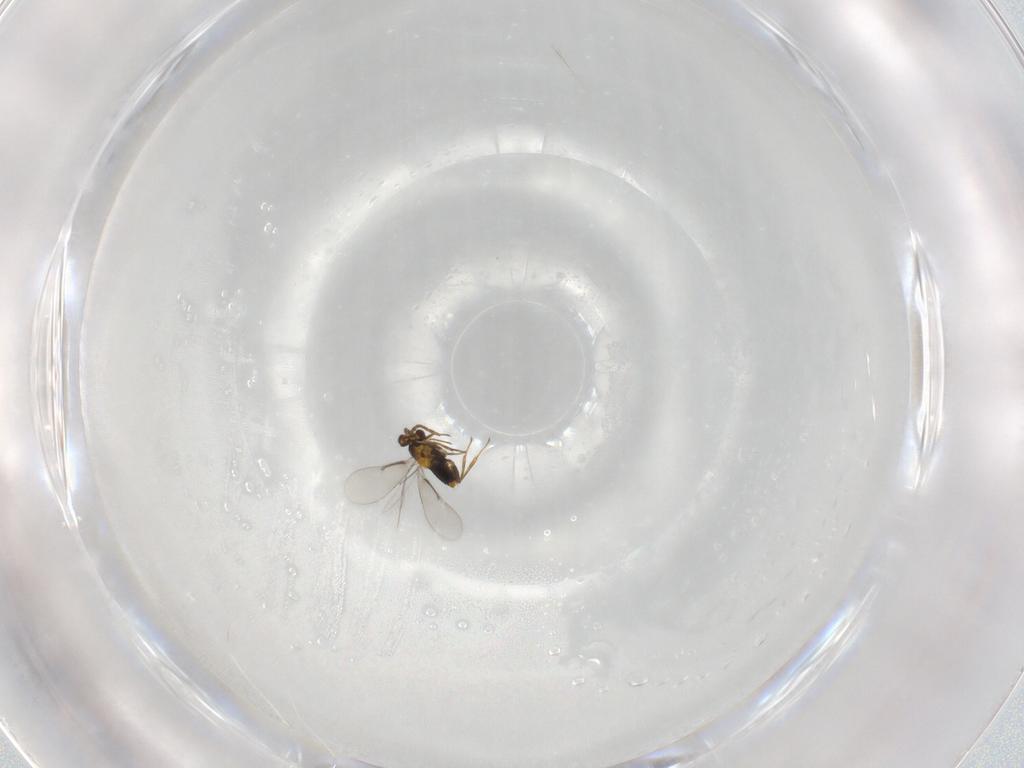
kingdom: Animalia
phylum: Arthropoda
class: Insecta
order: Hymenoptera
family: Aphelinidae
